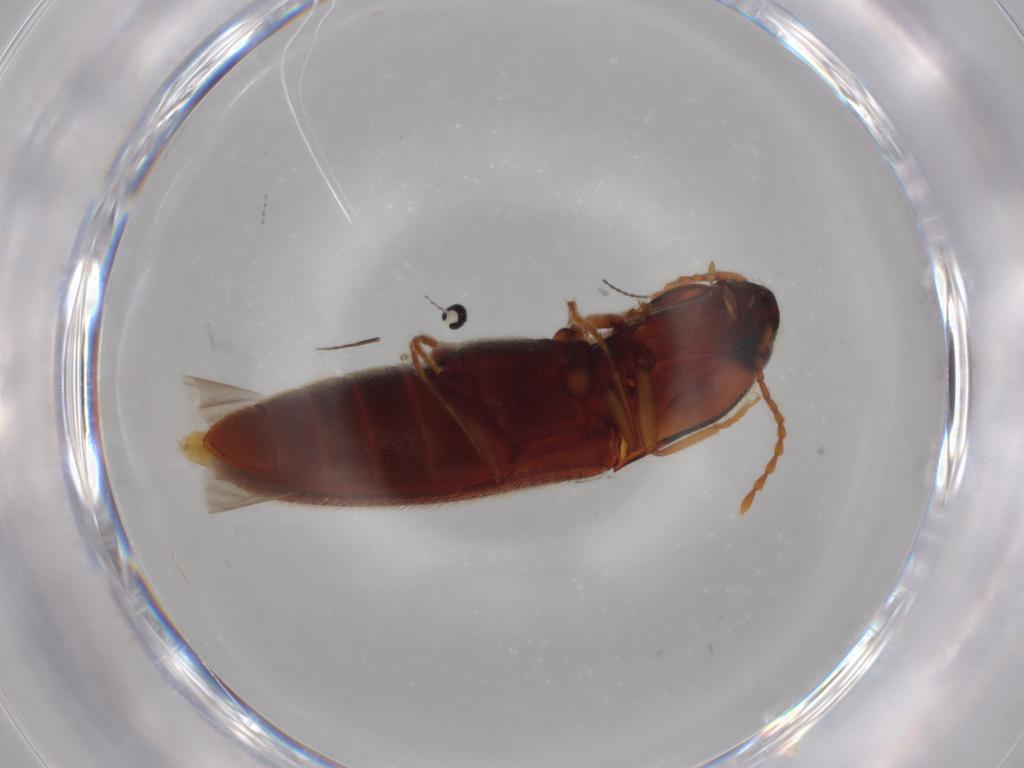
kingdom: Animalia
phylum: Arthropoda
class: Insecta
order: Coleoptera
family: Elateridae
